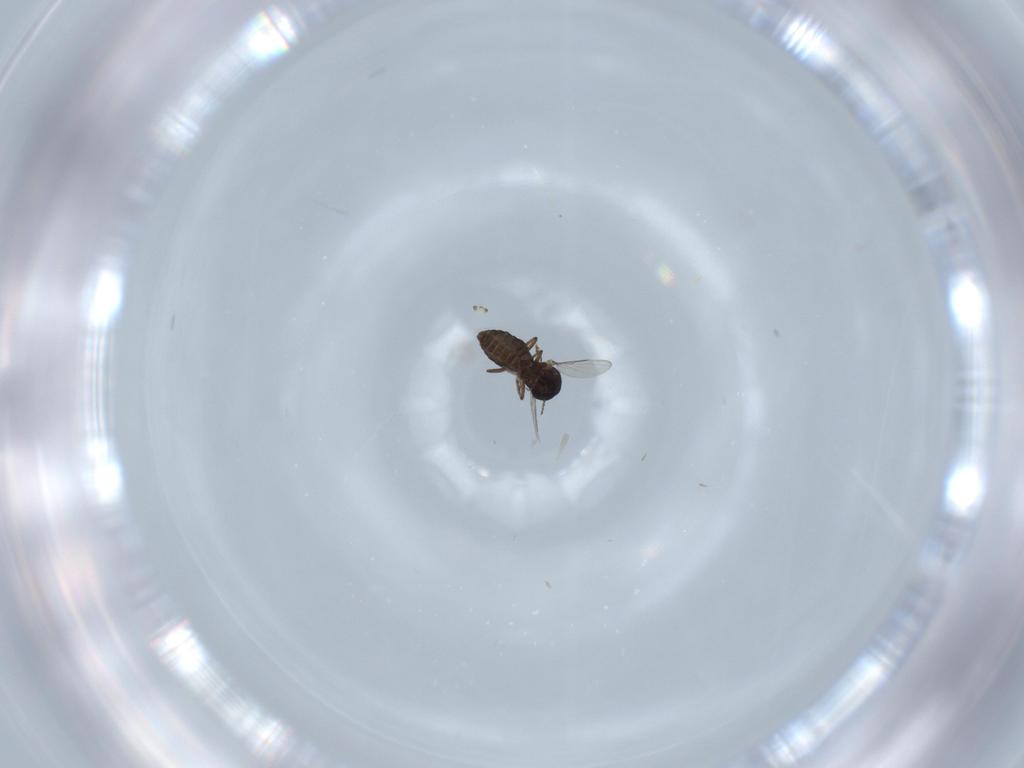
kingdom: Animalia
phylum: Arthropoda
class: Insecta
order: Diptera
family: Ceratopogonidae
